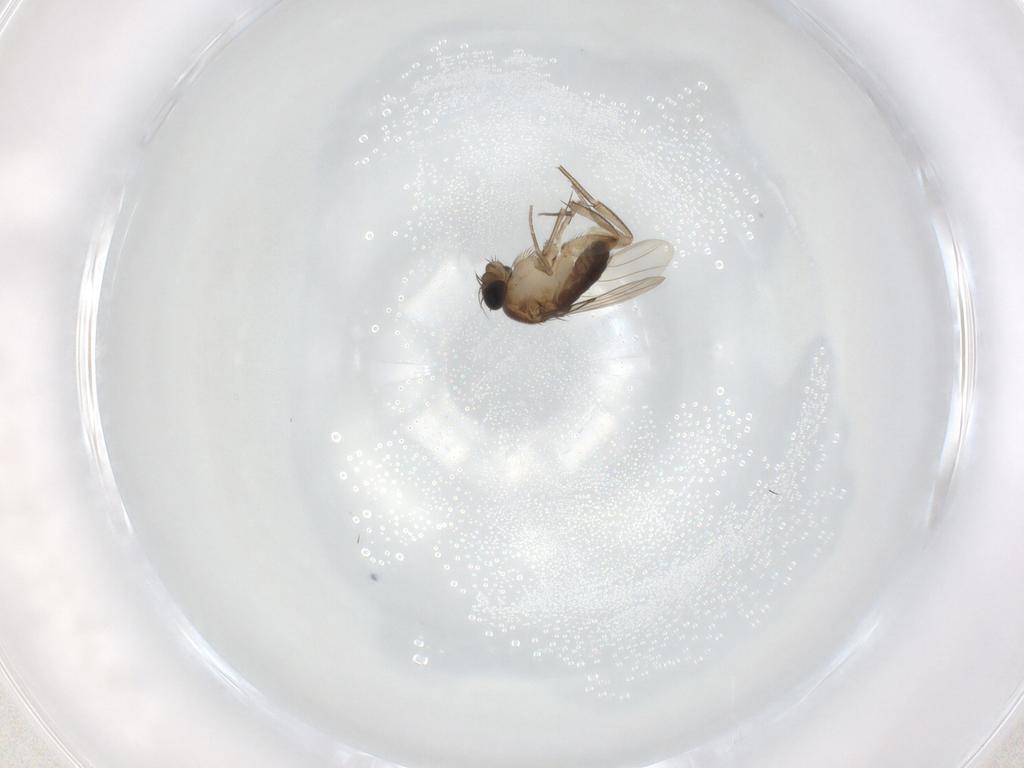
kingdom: Animalia
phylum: Arthropoda
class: Insecta
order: Diptera
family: Phoridae
